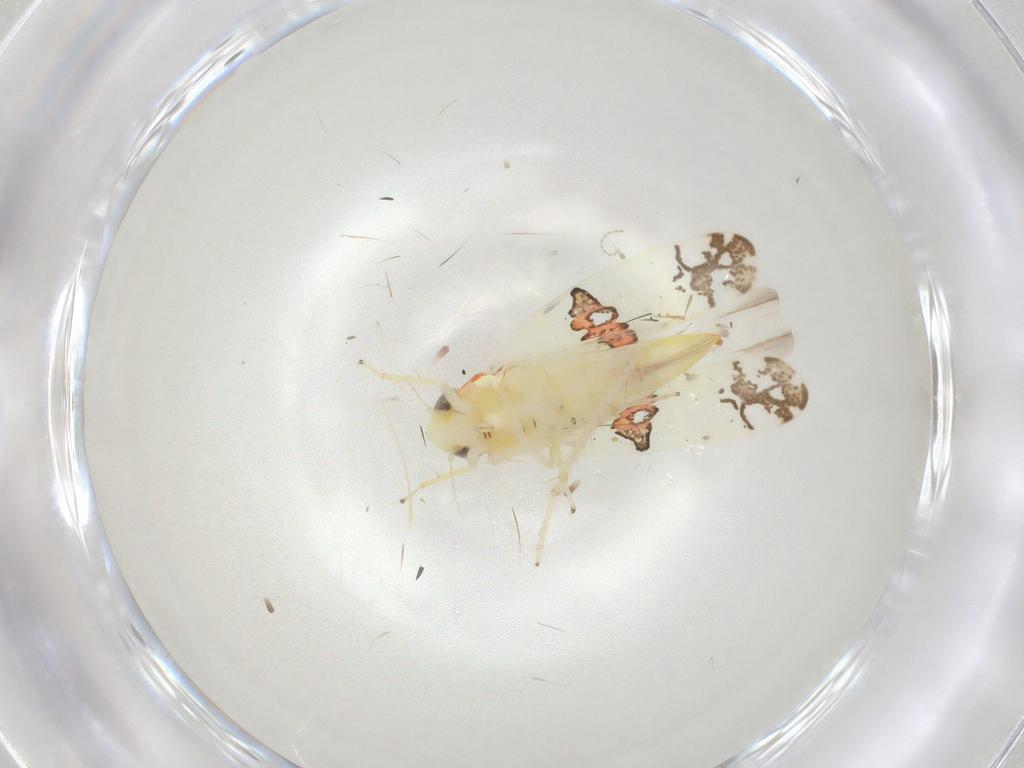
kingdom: Animalia
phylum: Arthropoda
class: Insecta
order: Hemiptera
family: Cicadellidae
